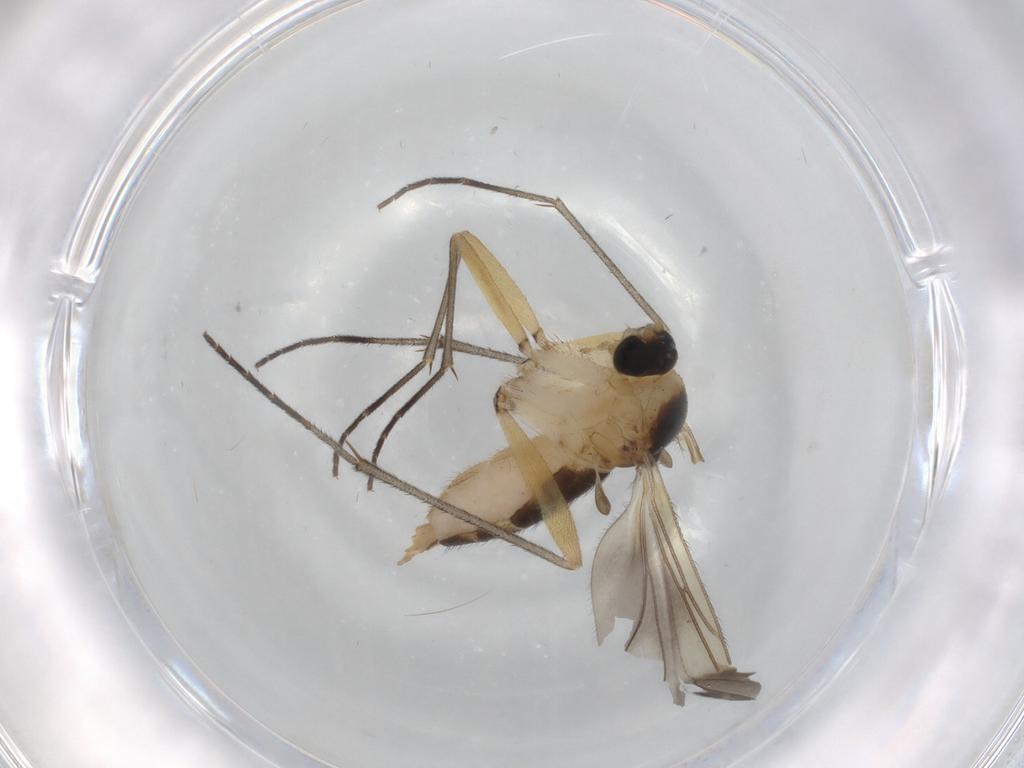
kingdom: Animalia
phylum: Arthropoda
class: Insecta
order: Diptera
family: Sciaridae
